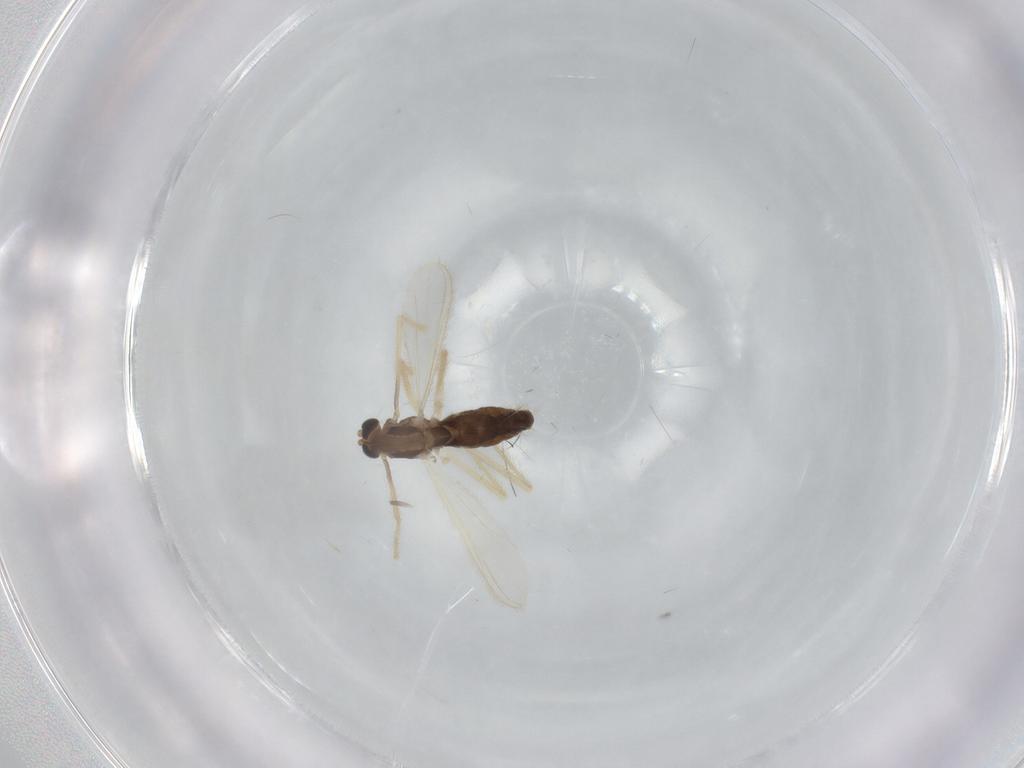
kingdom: Animalia
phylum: Arthropoda
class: Insecta
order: Diptera
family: Chironomidae
